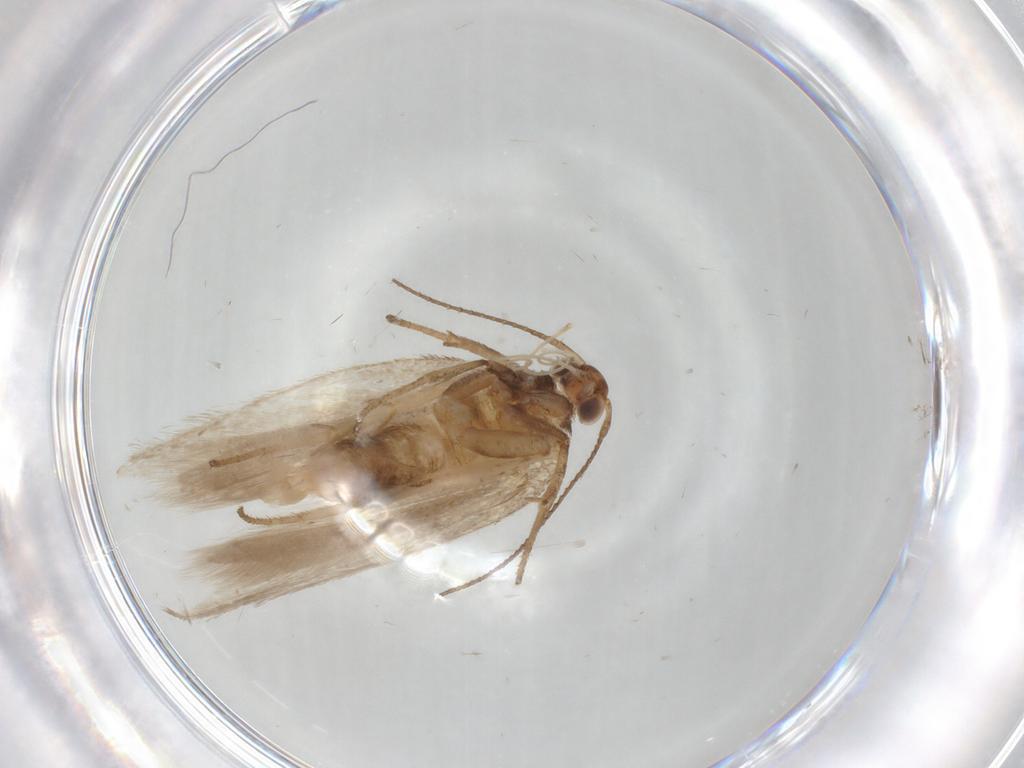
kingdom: Animalia
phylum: Arthropoda
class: Insecta
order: Lepidoptera
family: Gelechiidae
